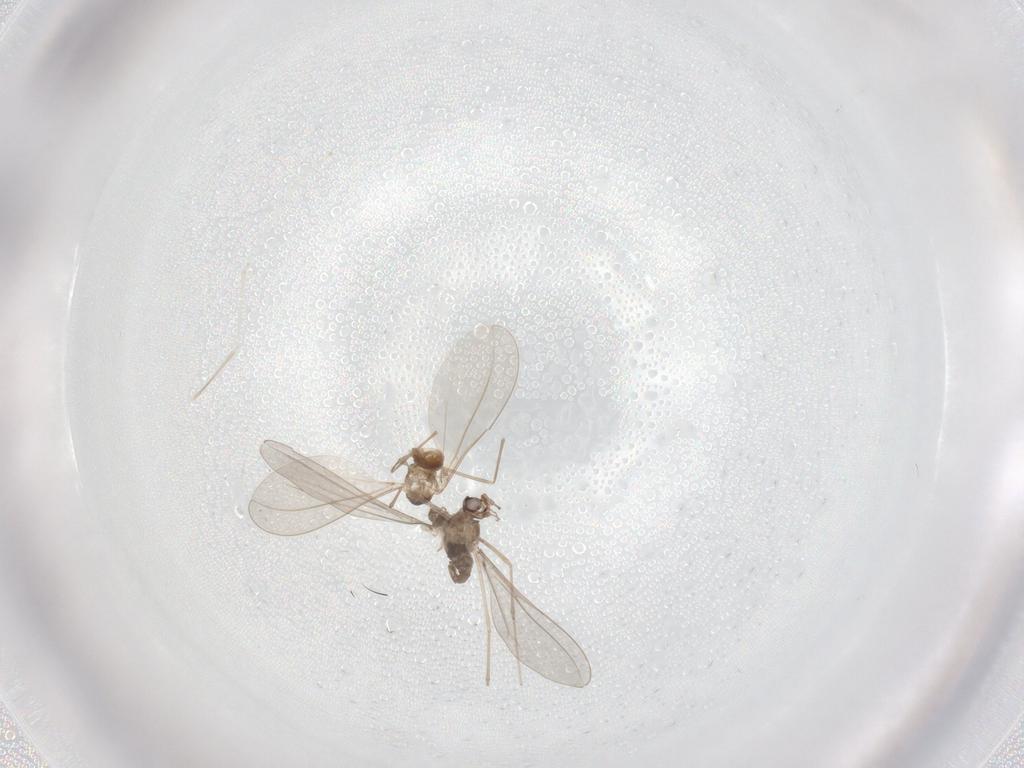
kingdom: Animalia
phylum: Arthropoda
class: Insecta
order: Diptera
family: Cecidomyiidae
